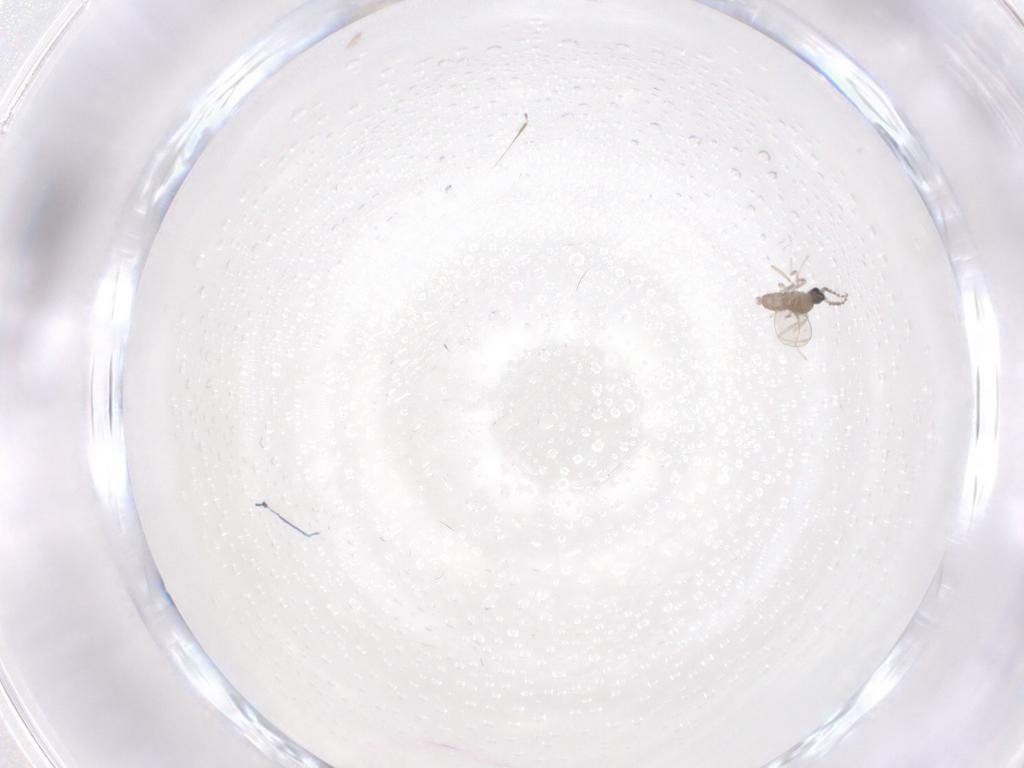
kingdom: Animalia
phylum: Arthropoda
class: Insecta
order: Diptera
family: Cecidomyiidae
